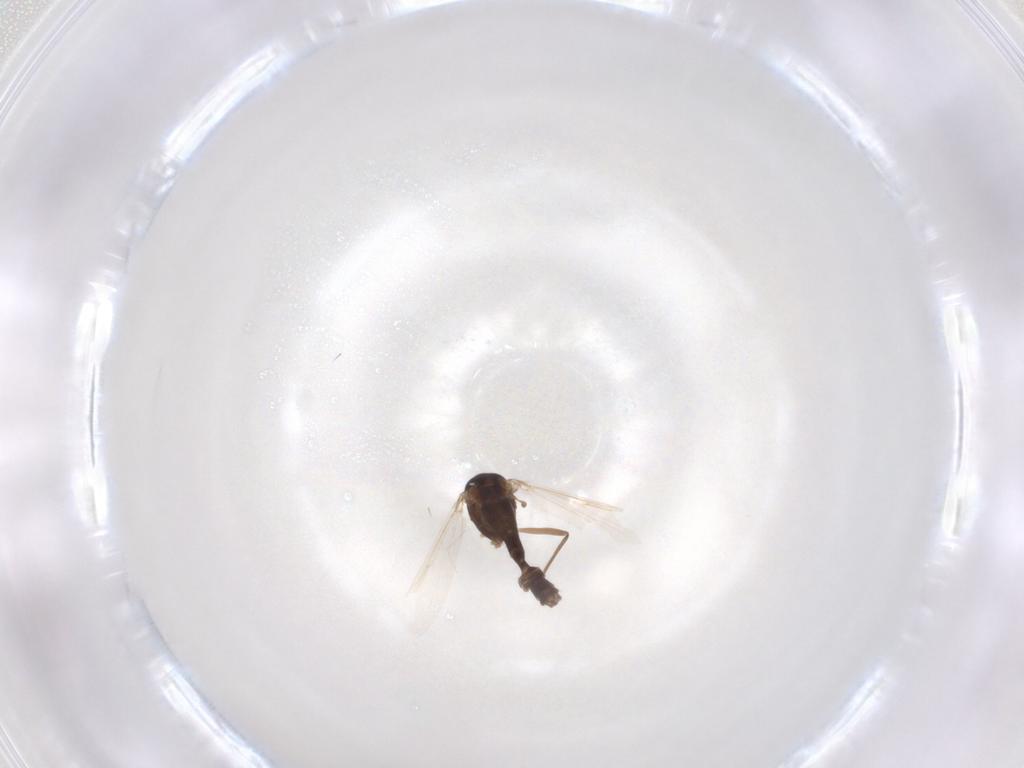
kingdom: Animalia
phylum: Arthropoda
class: Insecta
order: Diptera
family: Chironomidae
